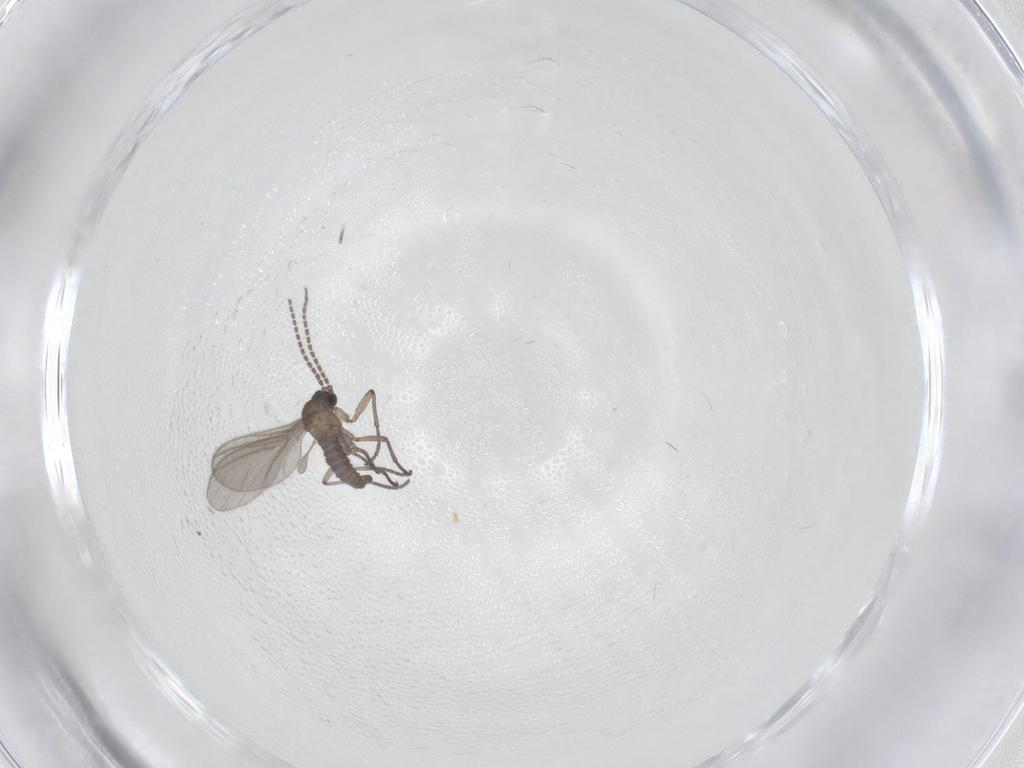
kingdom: Animalia
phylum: Arthropoda
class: Insecta
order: Diptera
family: Sciaridae
